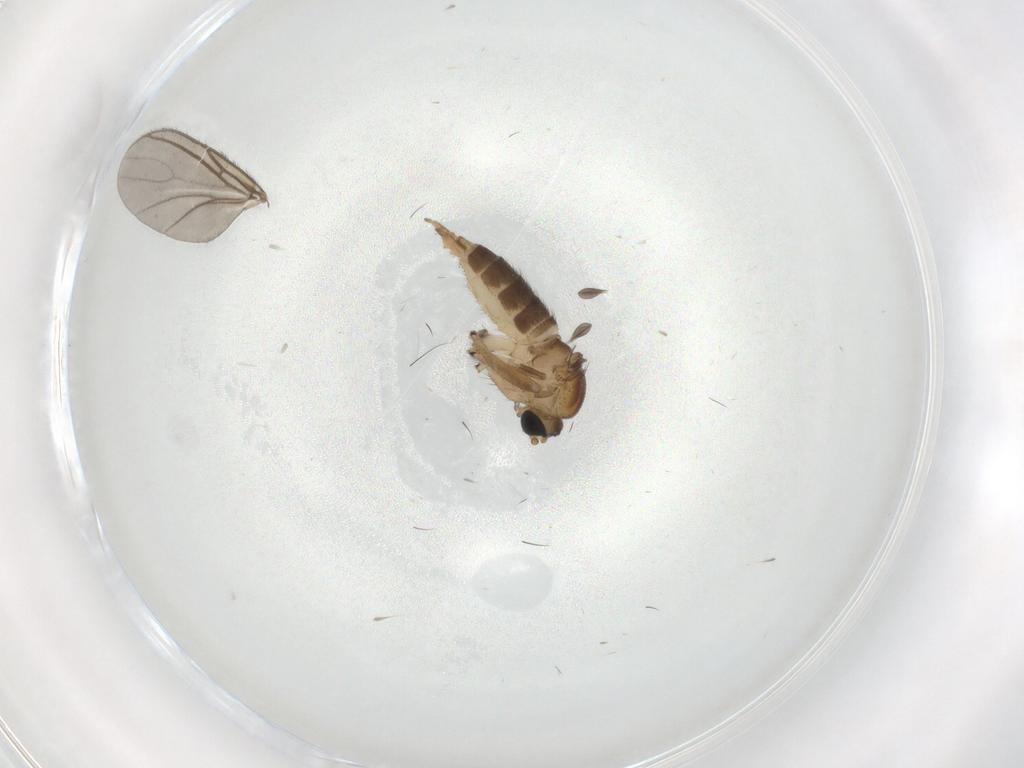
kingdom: Animalia
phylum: Arthropoda
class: Insecta
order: Diptera
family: Sciaridae
